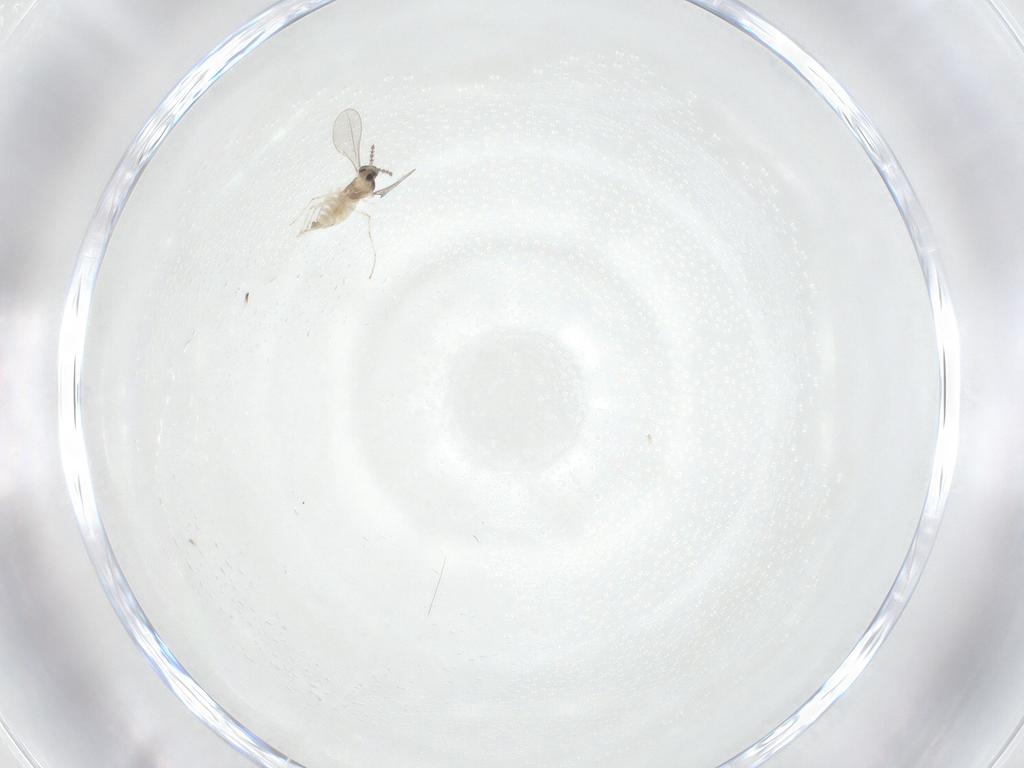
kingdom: Animalia
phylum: Arthropoda
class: Insecta
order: Diptera
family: Cecidomyiidae
